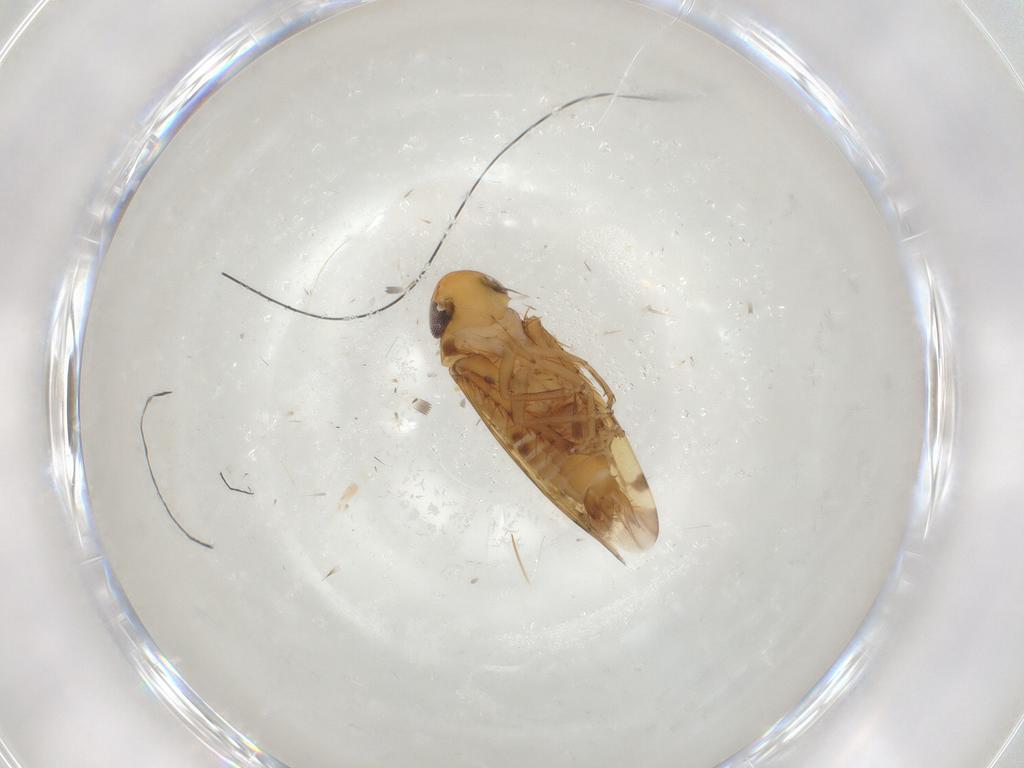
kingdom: Animalia
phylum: Arthropoda
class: Insecta
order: Hemiptera
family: Cicadellidae
